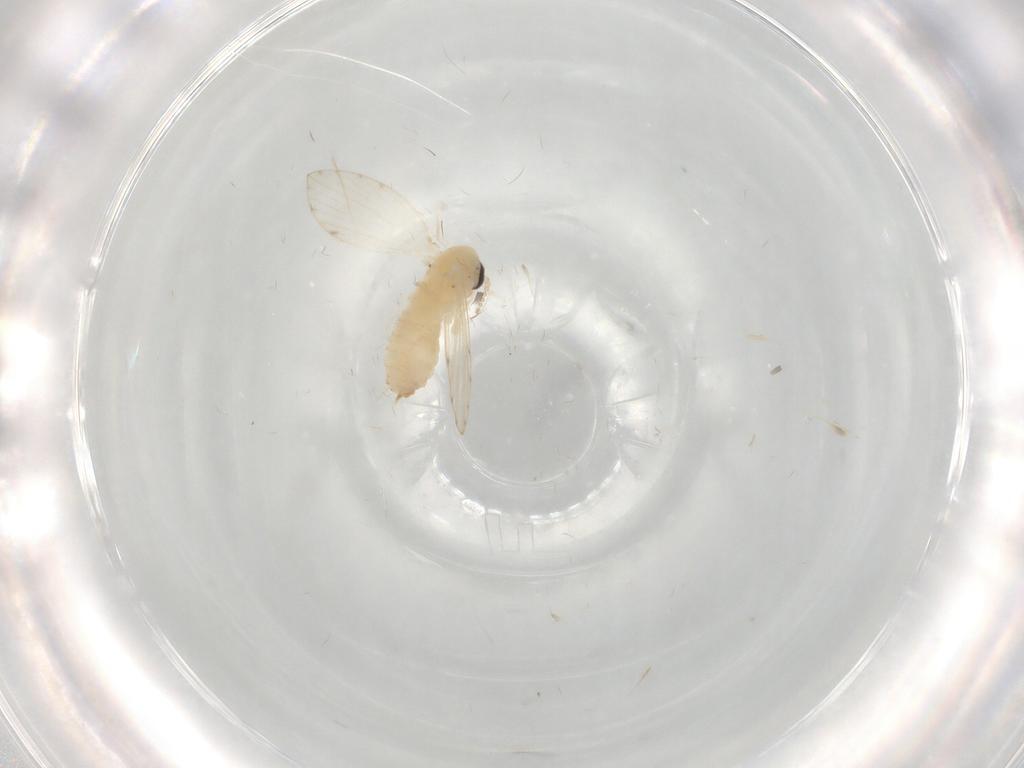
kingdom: Animalia
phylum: Arthropoda
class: Insecta
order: Diptera
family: Psychodidae
